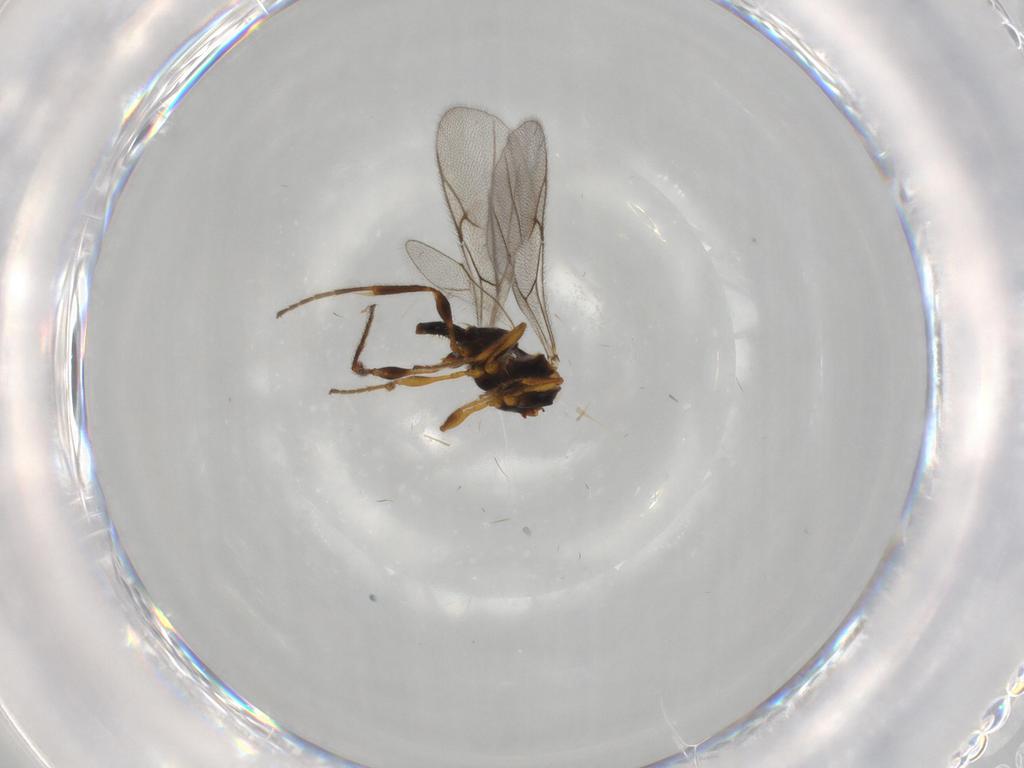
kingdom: Animalia
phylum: Arthropoda
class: Insecta
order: Hymenoptera
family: Diapriidae
